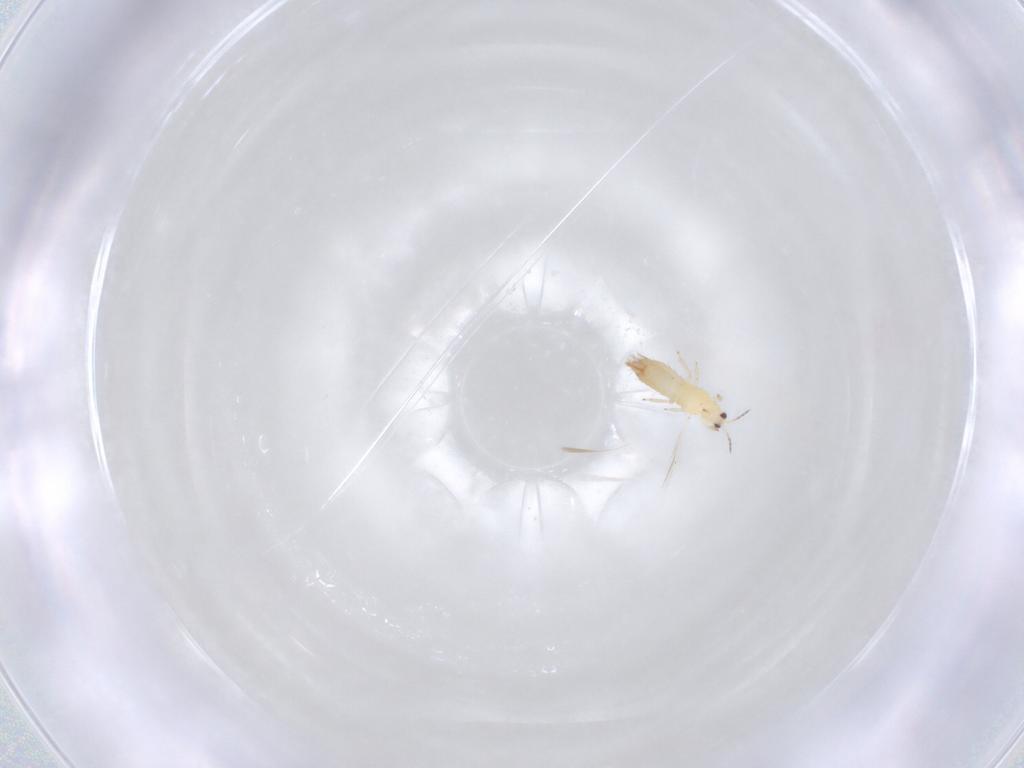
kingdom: Animalia
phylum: Arthropoda
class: Insecta
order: Thysanoptera
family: Thripidae
